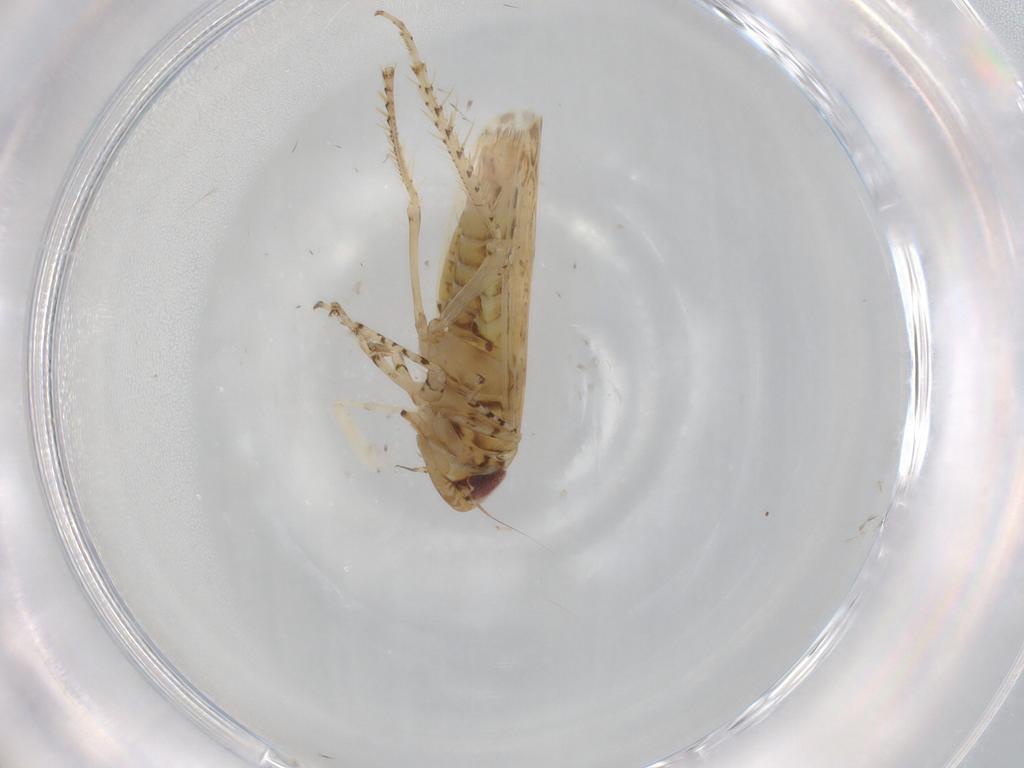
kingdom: Animalia
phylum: Arthropoda
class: Insecta
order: Hemiptera
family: Cicadellidae
